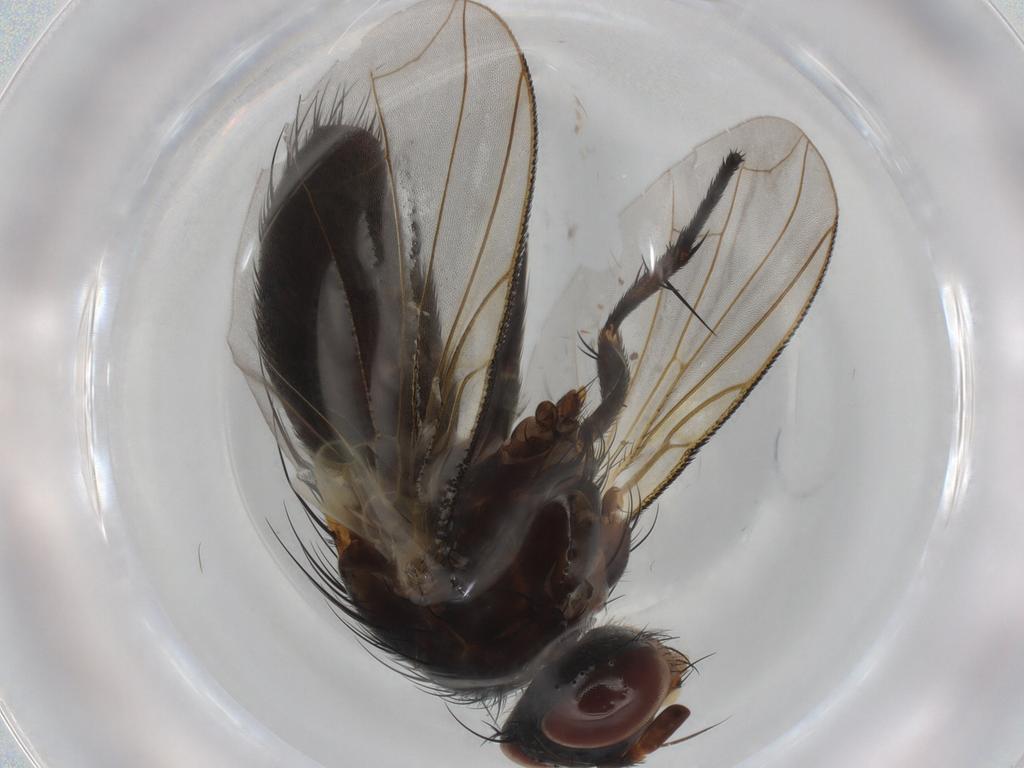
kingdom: Animalia
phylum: Arthropoda
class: Insecta
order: Diptera
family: Tachinidae
